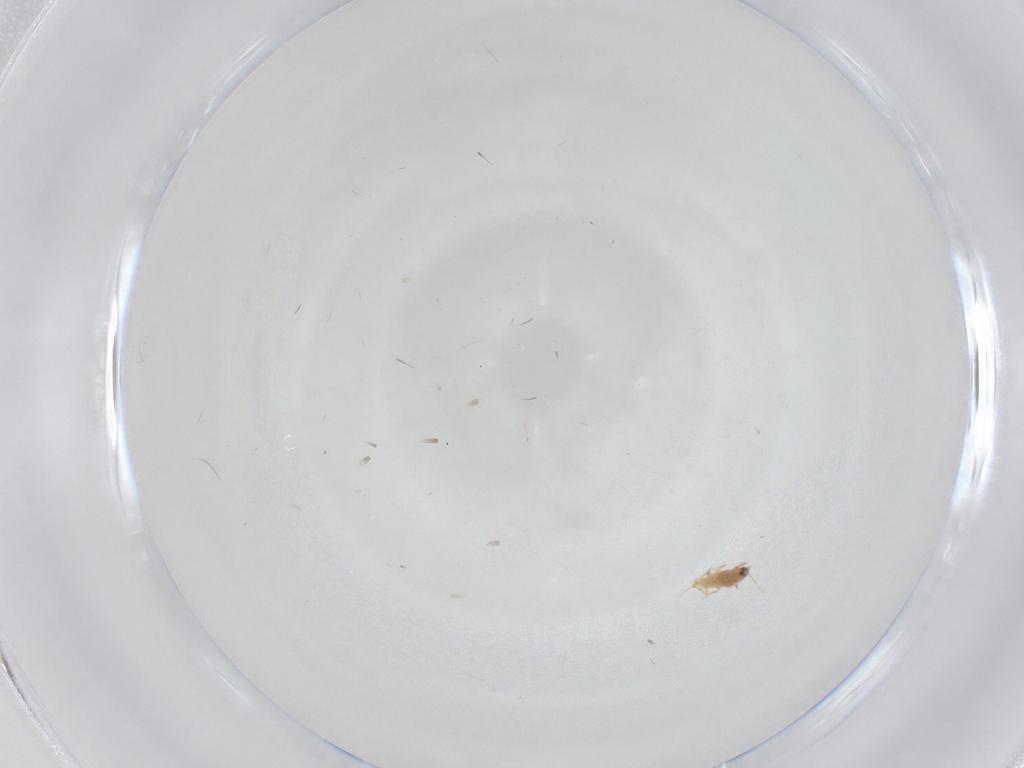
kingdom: Animalia
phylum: Arthropoda
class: Insecta
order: Hemiptera
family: Diaspididae
